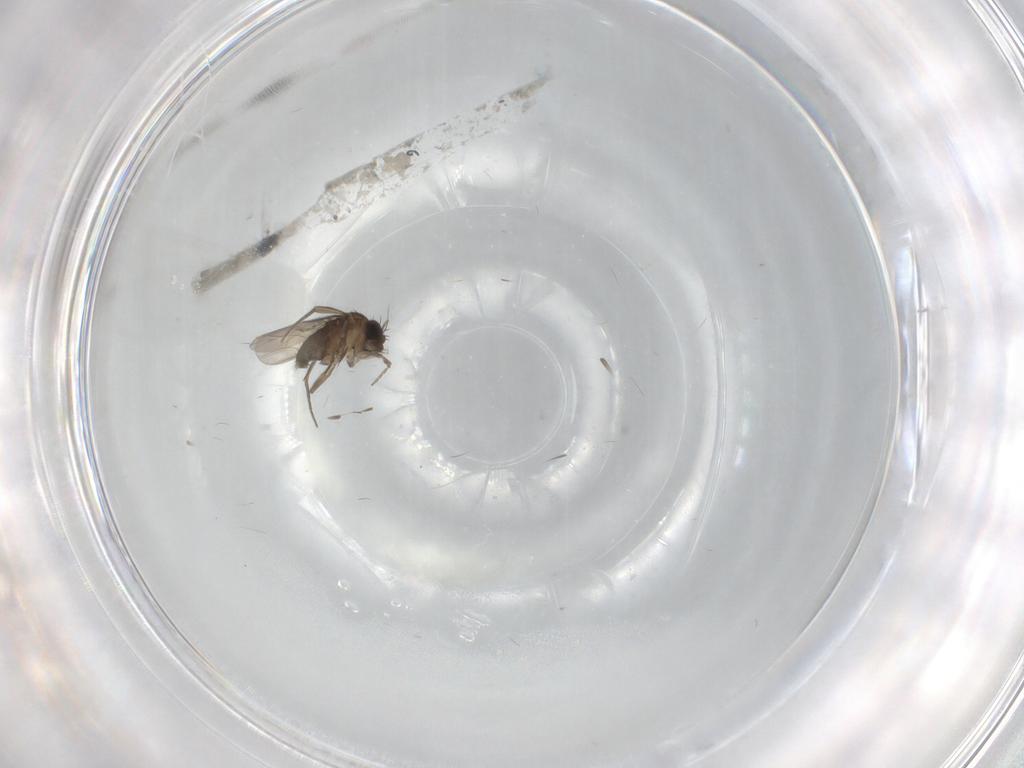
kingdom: Animalia
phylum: Arthropoda
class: Insecta
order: Diptera
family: Phoridae
